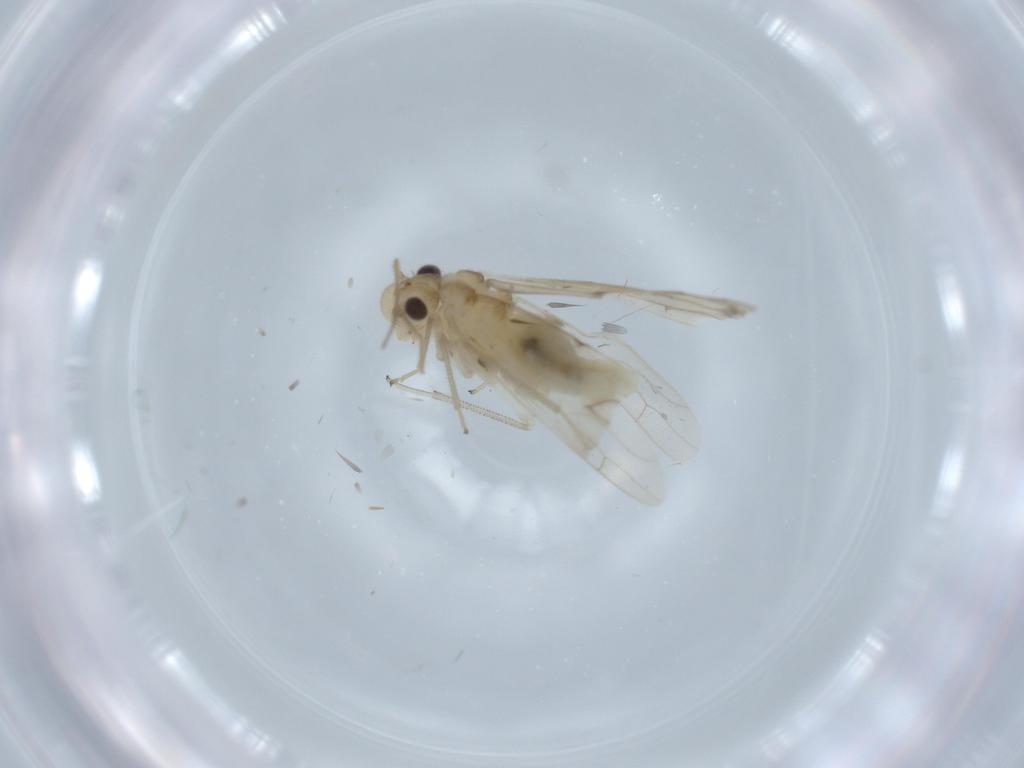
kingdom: Animalia
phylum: Arthropoda
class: Insecta
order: Psocodea
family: Caeciliusidae
